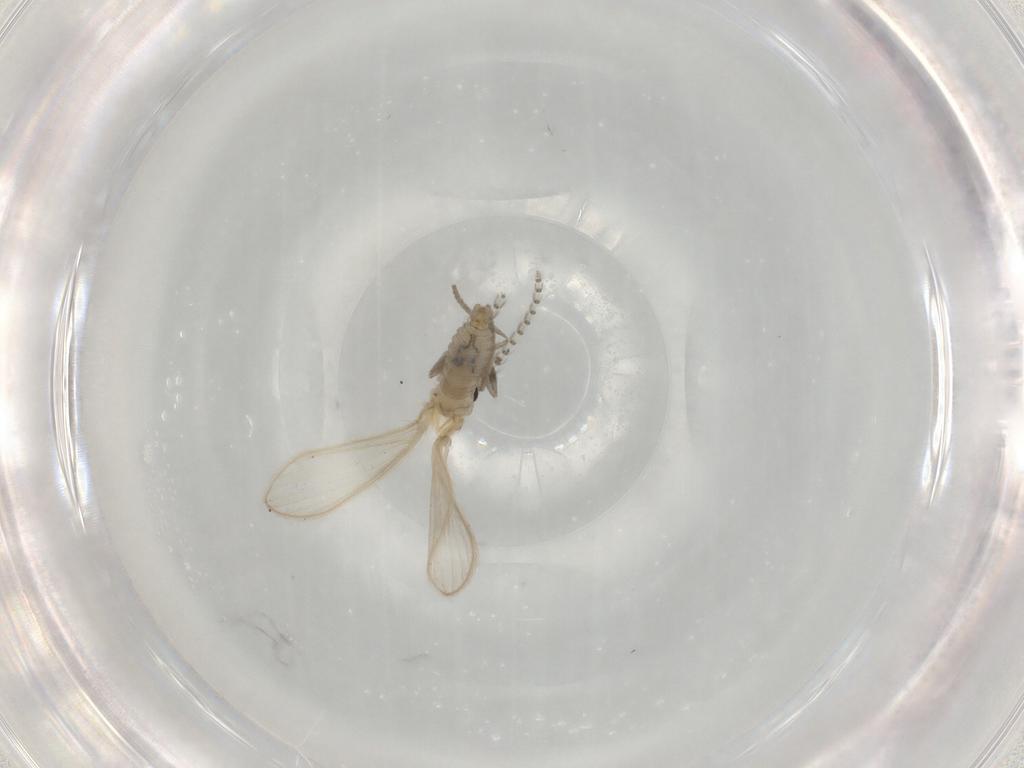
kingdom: Animalia
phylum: Arthropoda
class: Insecta
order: Diptera
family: Psychodidae
